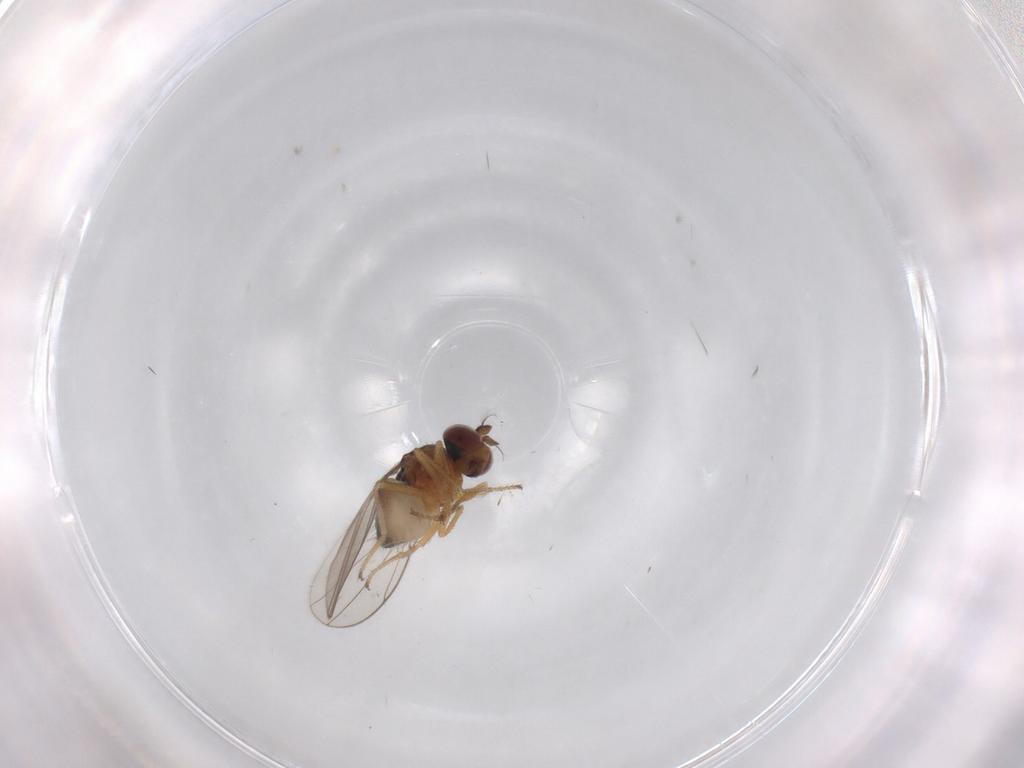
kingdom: Animalia
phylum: Arthropoda
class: Insecta
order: Diptera
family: Ephydridae
